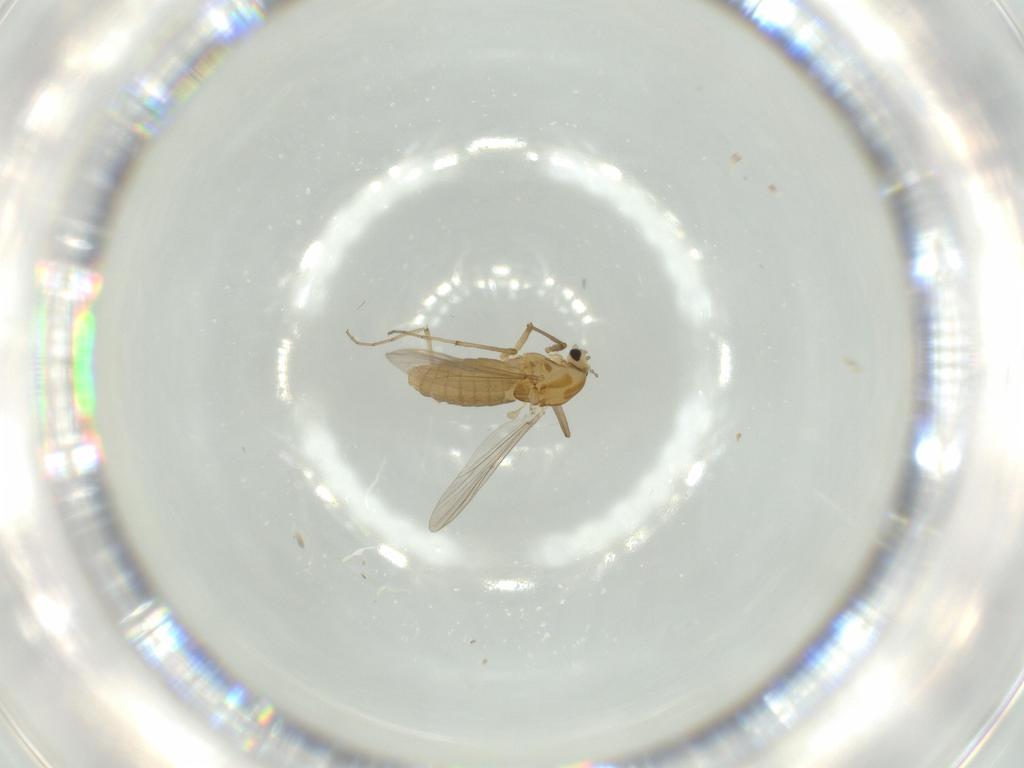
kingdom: Animalia
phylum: Arthropoda
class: Insecta
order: Diptera
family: Chironomidae
